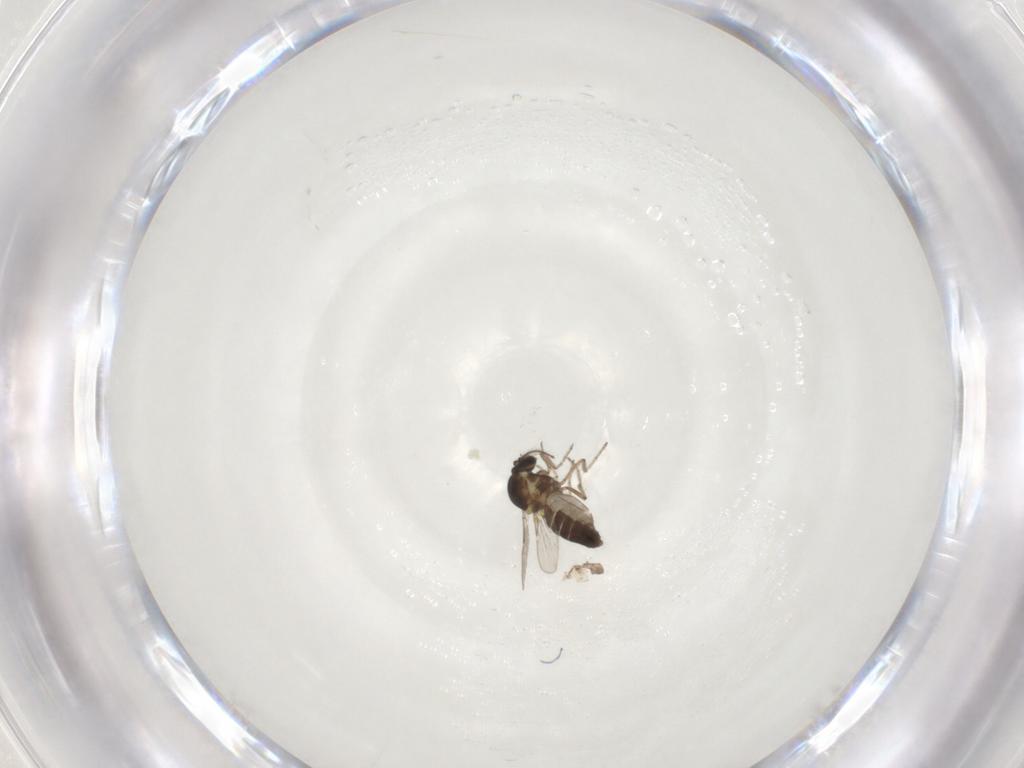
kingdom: Animalia
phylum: Arthropoda
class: Insecta
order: Diptera
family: Ceratopogonidae
